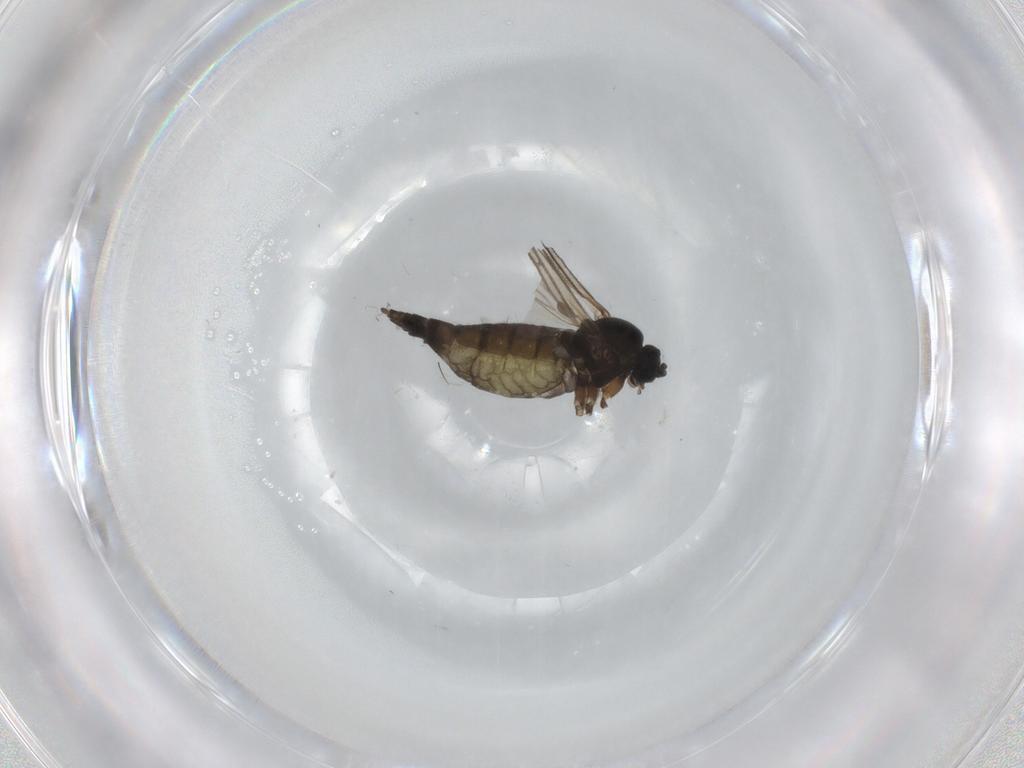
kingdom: Animalia
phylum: Arthropoda
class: Insecta
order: Diptera
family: Sciaridae
